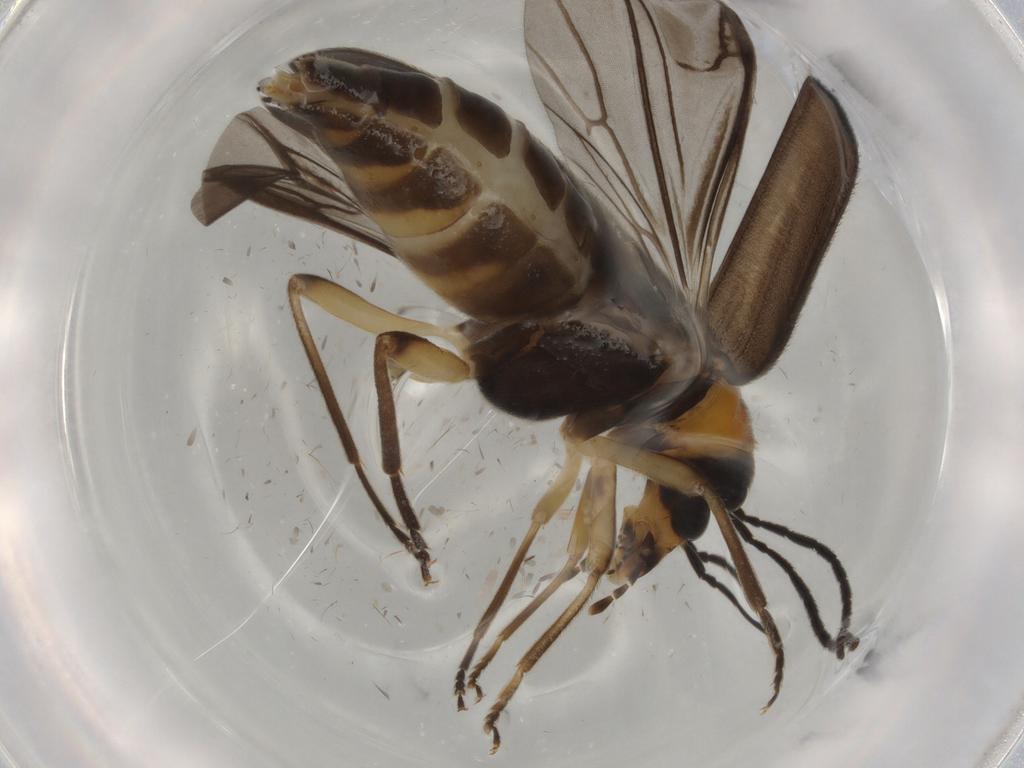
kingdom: Animalia
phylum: Arthropoda
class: Insecta
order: Coleoptera
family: Oedemeridae
